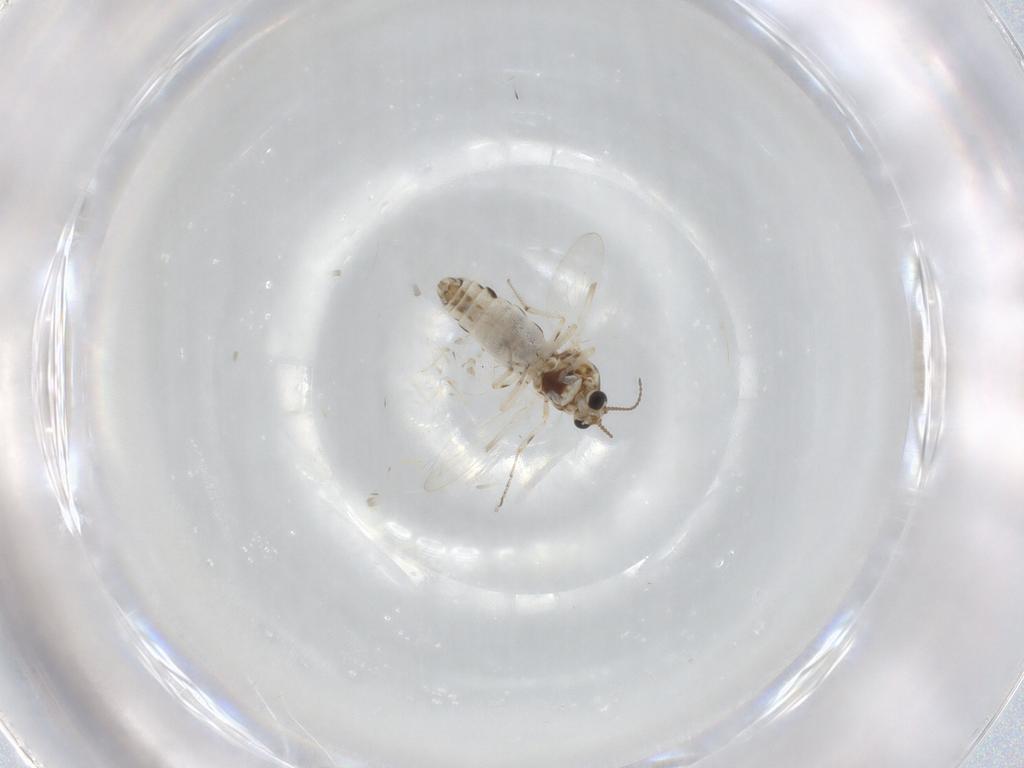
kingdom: Animalia
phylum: Arthropoda
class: Insecta
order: Diptera
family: Ceratopogonidae
